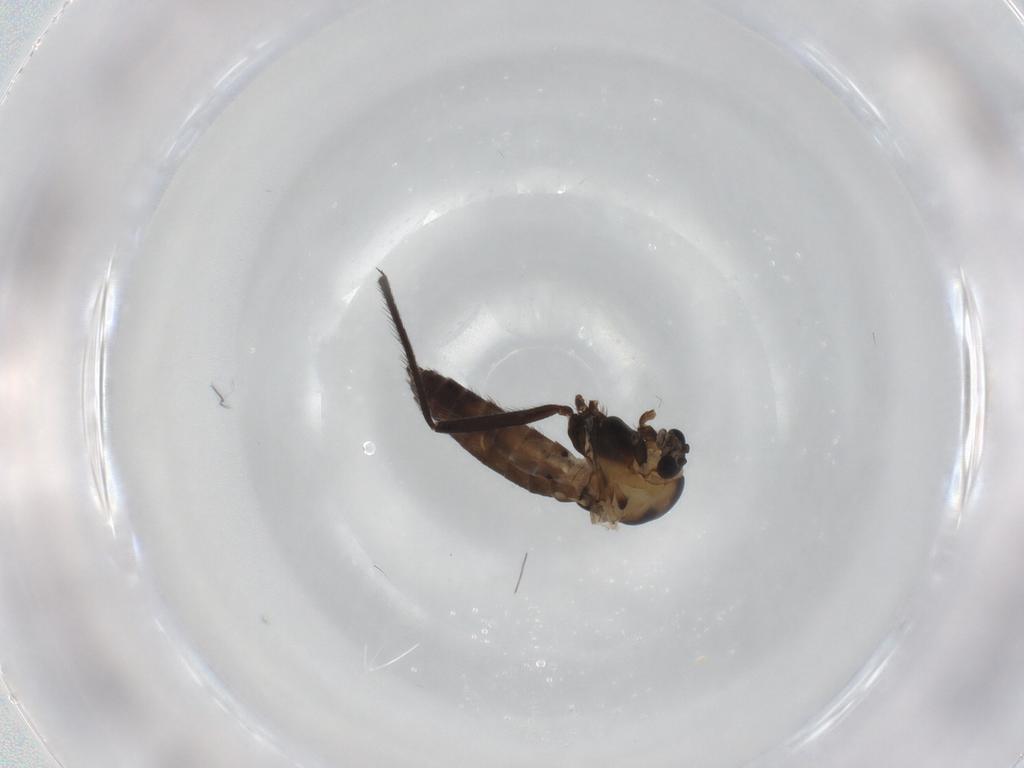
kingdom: Animalia
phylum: Arthropoda
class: Insecta
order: Diptera
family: Chironomidae
